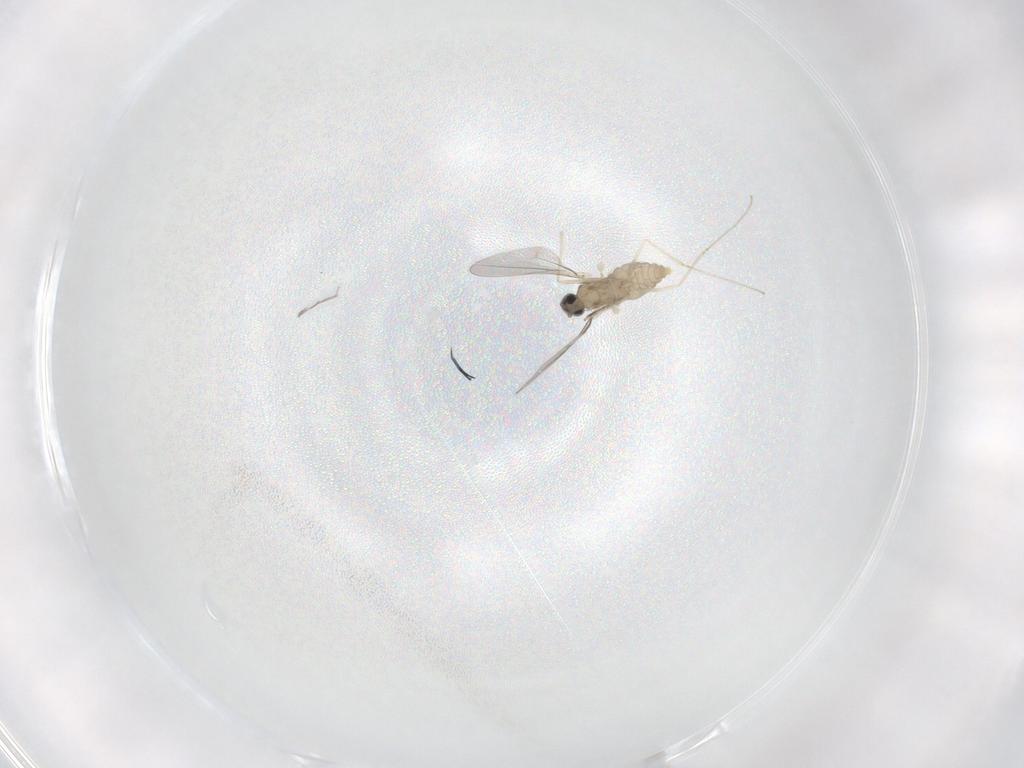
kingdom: Animalia
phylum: Arthropoda
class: Insecta
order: Diptera
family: Cecidomyiidae
